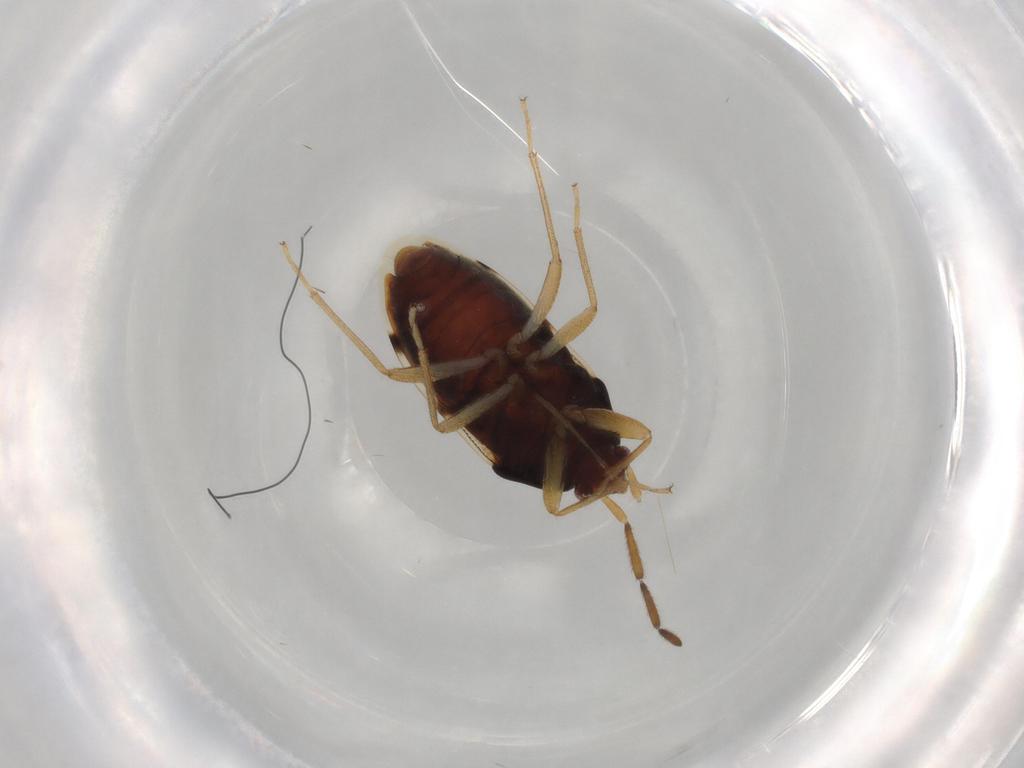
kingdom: Animalia
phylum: Arthropoda
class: Insecta
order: Hemiptera
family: Rhyparochromidae
